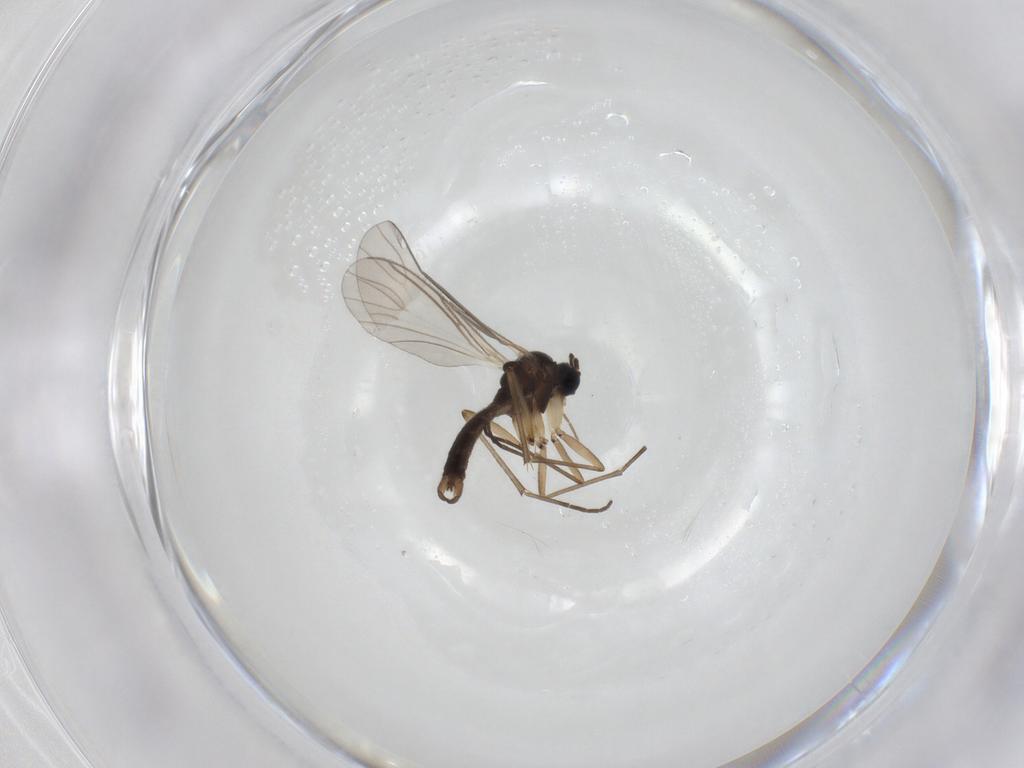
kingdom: Animalia
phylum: Arthropoda
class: Insecta
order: Diptera
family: Sciaridae
